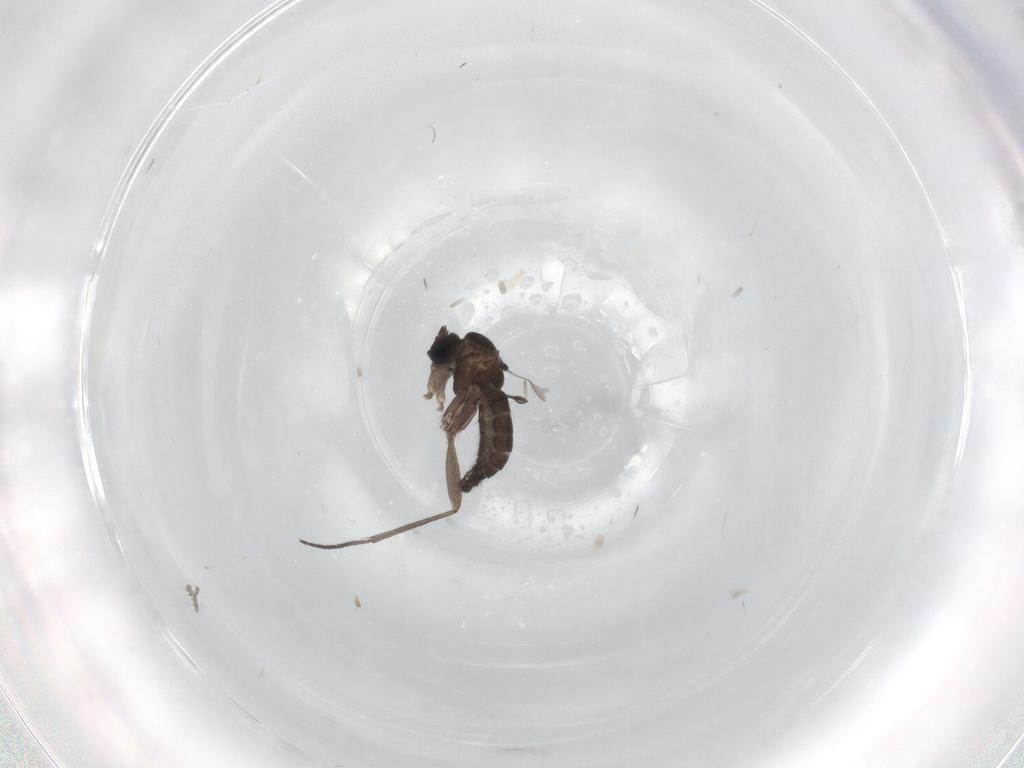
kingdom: Animalia
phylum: Arthropoda
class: Insecta
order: Diptera
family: Sciaridae
